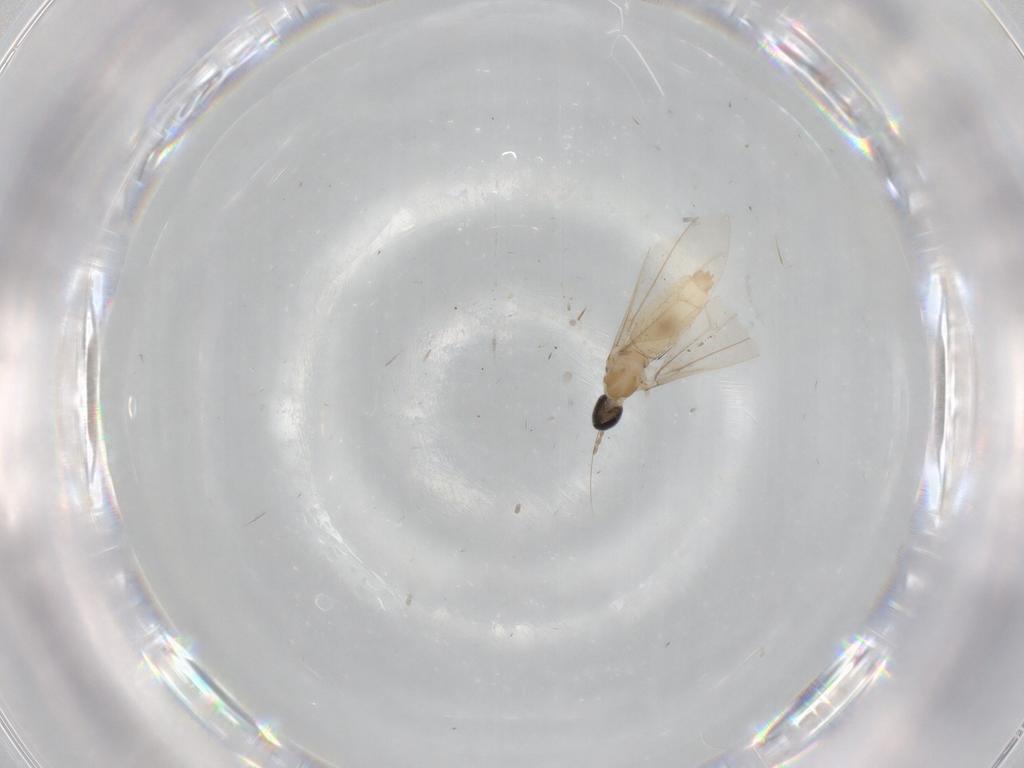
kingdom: Animalia
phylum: Arthropoda
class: Insecta
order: Diptera
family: Cecidomyiidae
